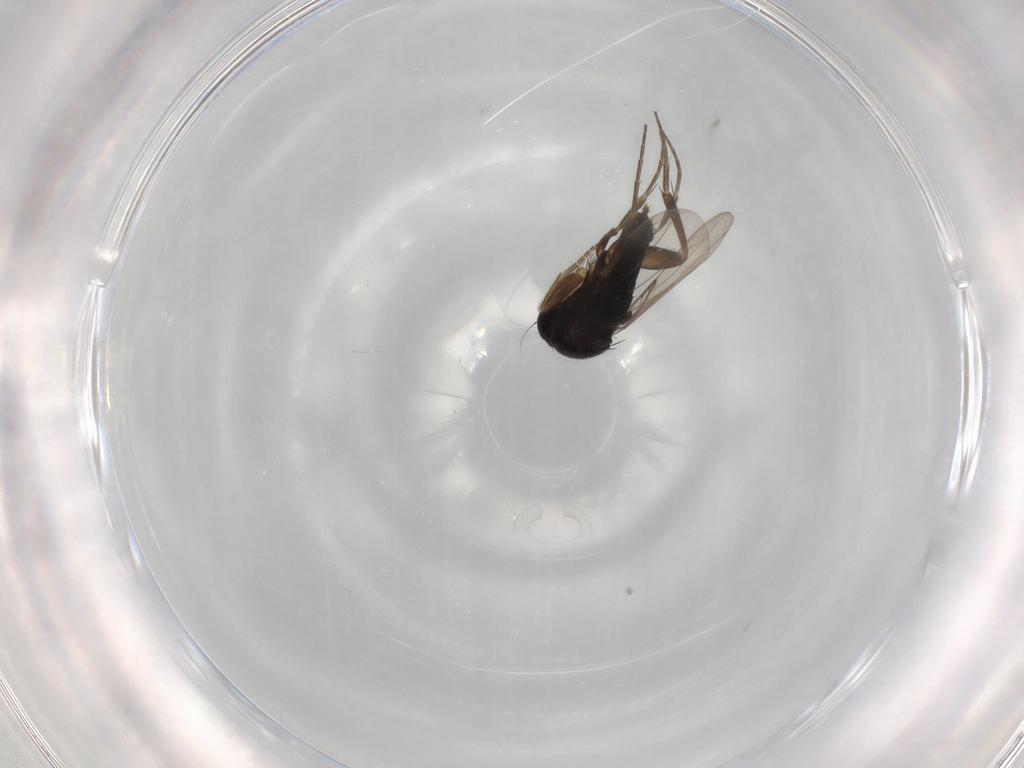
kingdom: Animalia
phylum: Arthropoda
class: Insecta
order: Diptera
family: Phoridae
